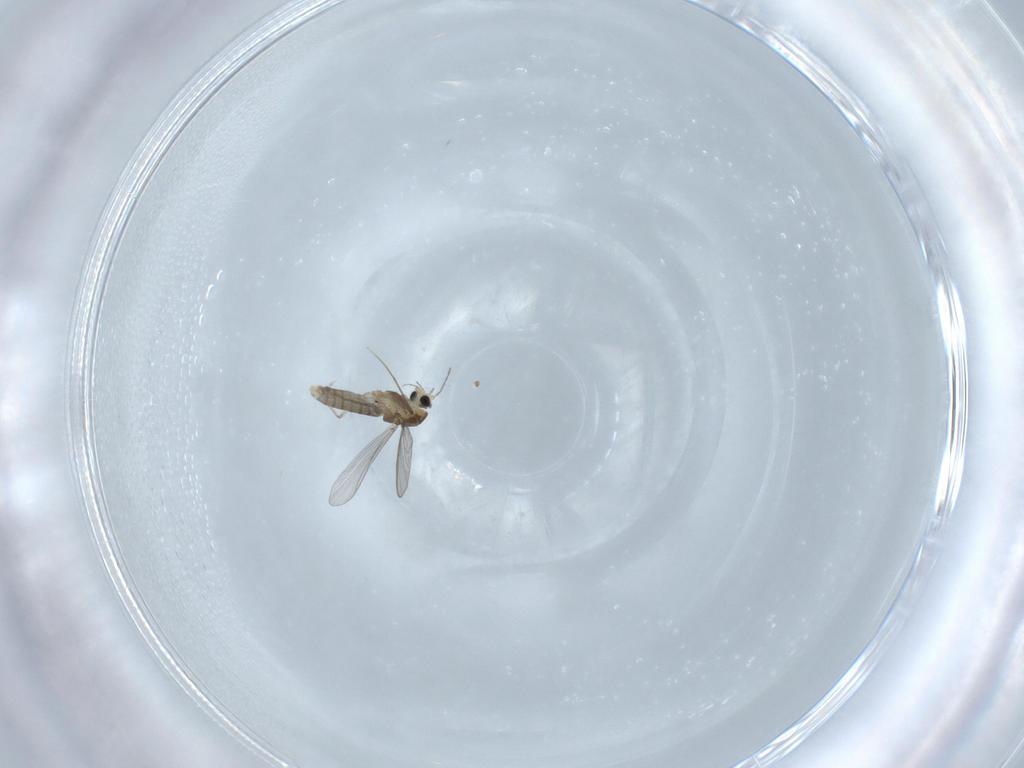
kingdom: Animalia
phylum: Arthropoda
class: Insecta
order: Diptera
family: Chironomidae
